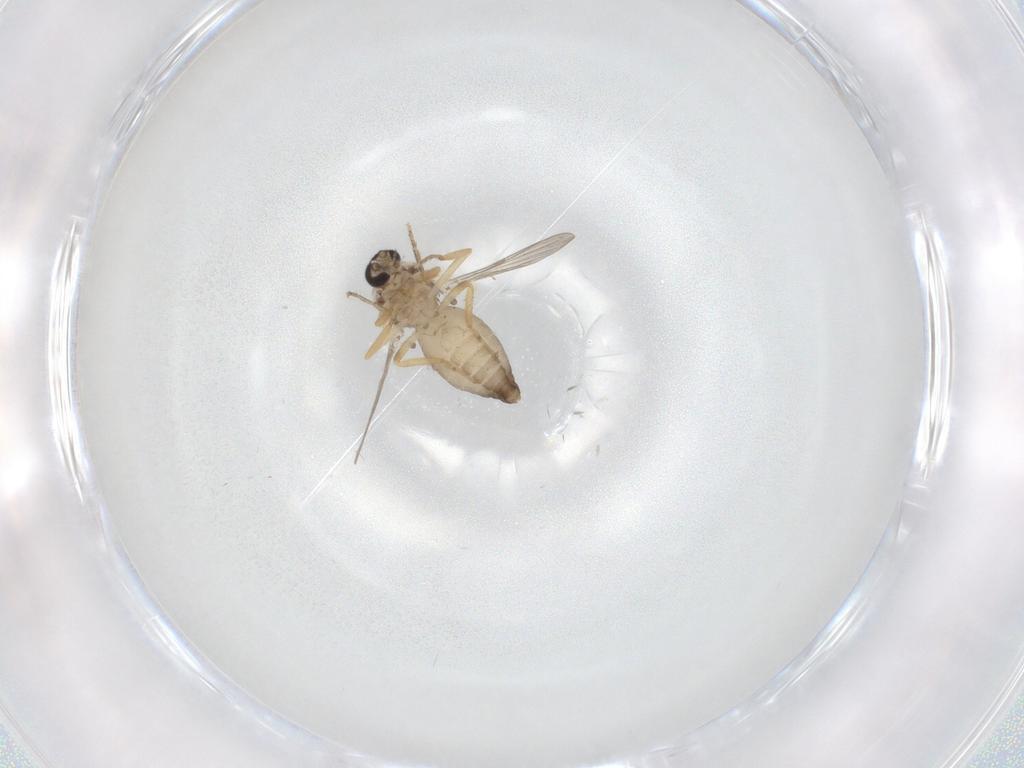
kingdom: Animalia
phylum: Arthropoda
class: Insecta
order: Diptera
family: Ceratopogonidae
